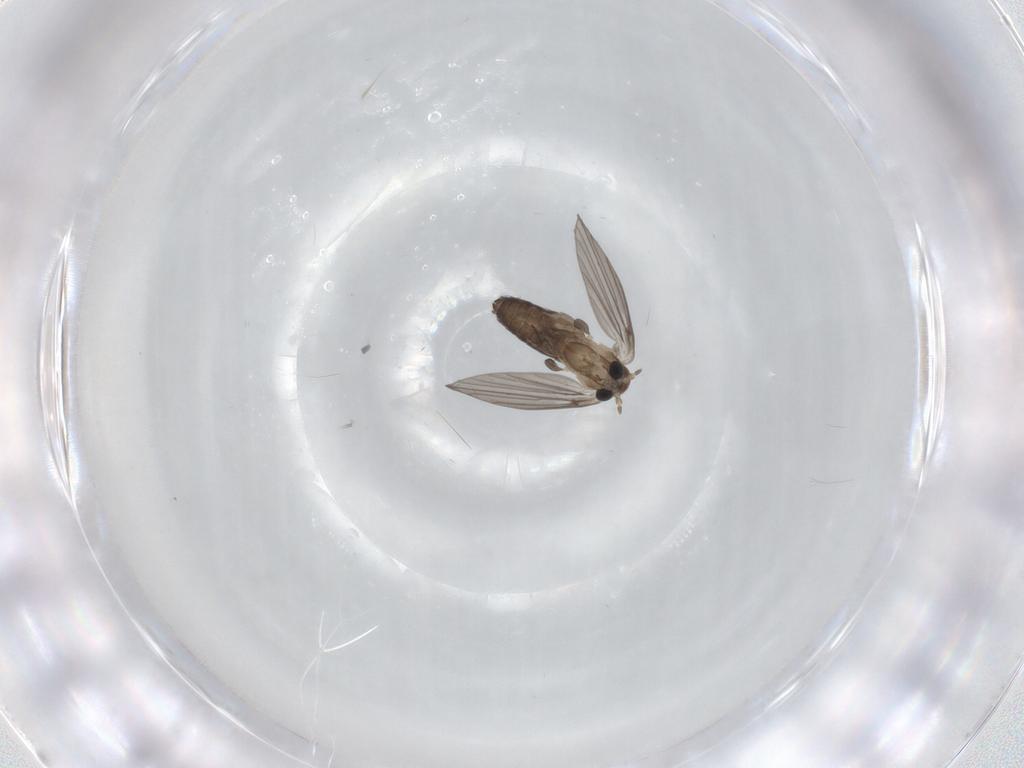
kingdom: Animalia
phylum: Arthropoda
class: Insecta
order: Diptera
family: Psychodidae
